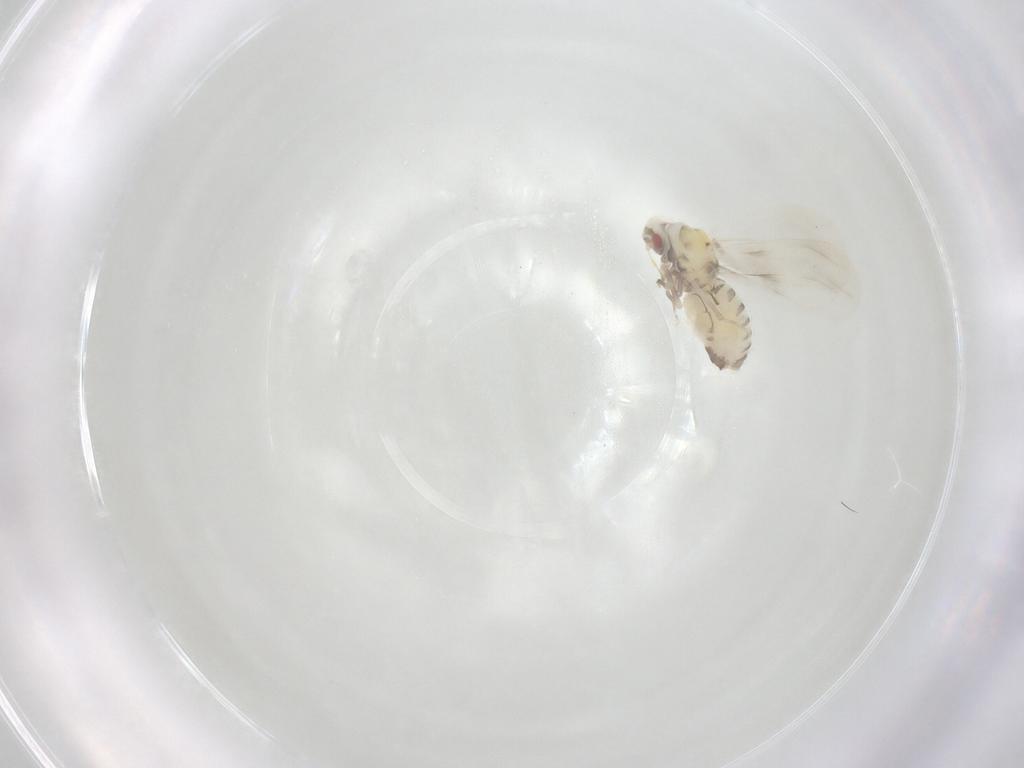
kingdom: Animalia
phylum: Arthropoda
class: Insecta
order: Hemiptera
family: Aleyrodidae
